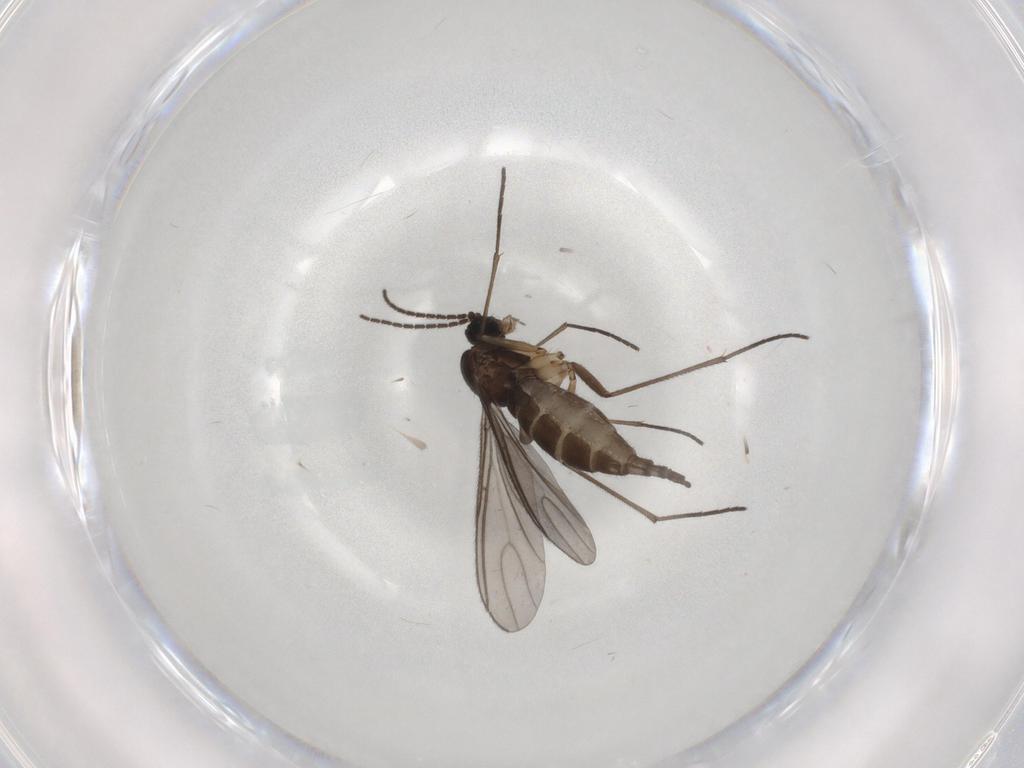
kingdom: Animalia
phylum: Arthropoda
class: Insecta
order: Diptera
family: Sciaridae
